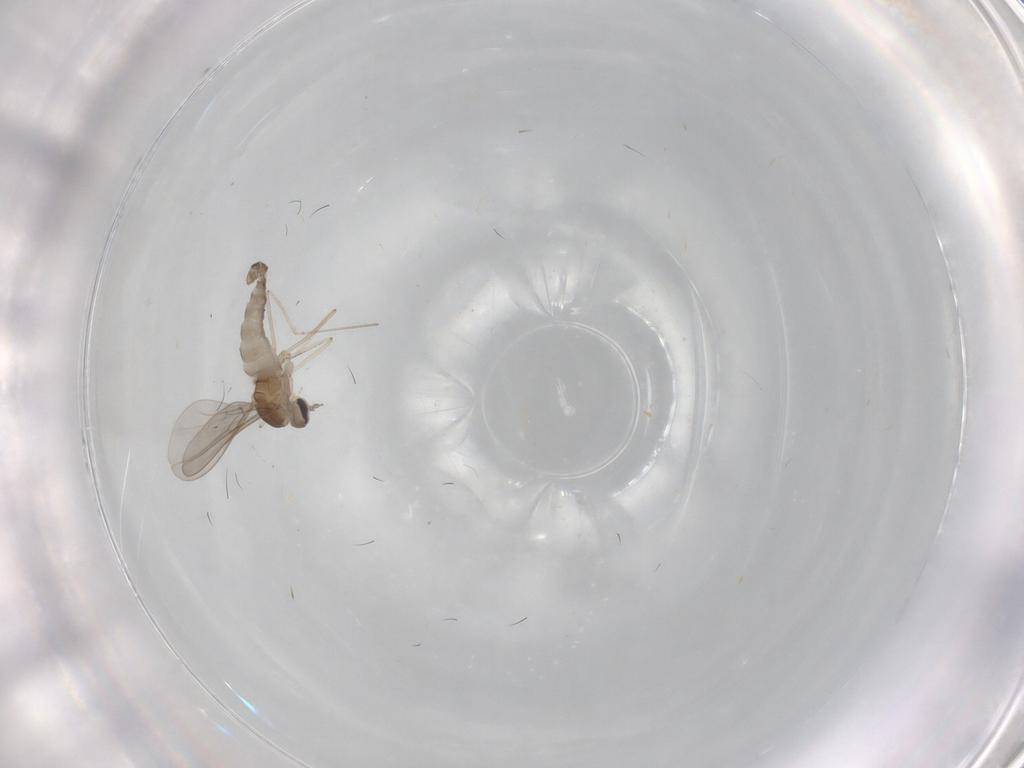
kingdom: Animalia
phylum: Arthropoda
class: Insecta
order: Diptera
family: Cecidomyiidae
